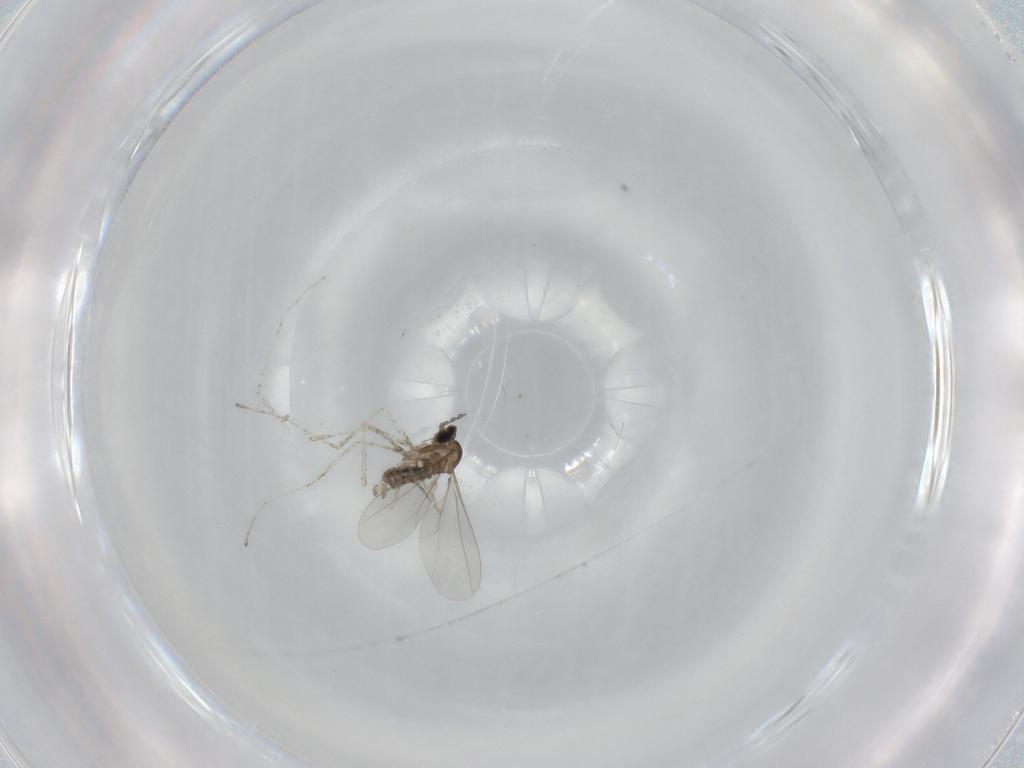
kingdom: Animalia
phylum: Arthropoda
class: Insecta
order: Diptera
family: Cecidomyiidae
